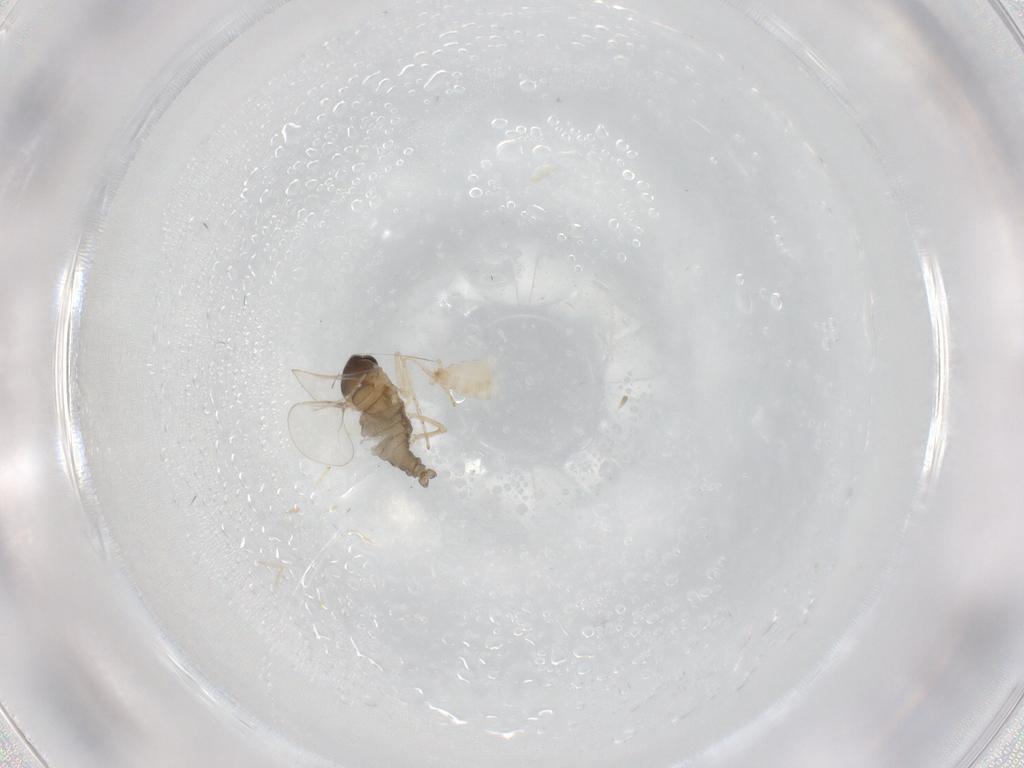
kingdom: Animalia
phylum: Arthropoda
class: Insecta
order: Diptera
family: Cecidomyiidae
